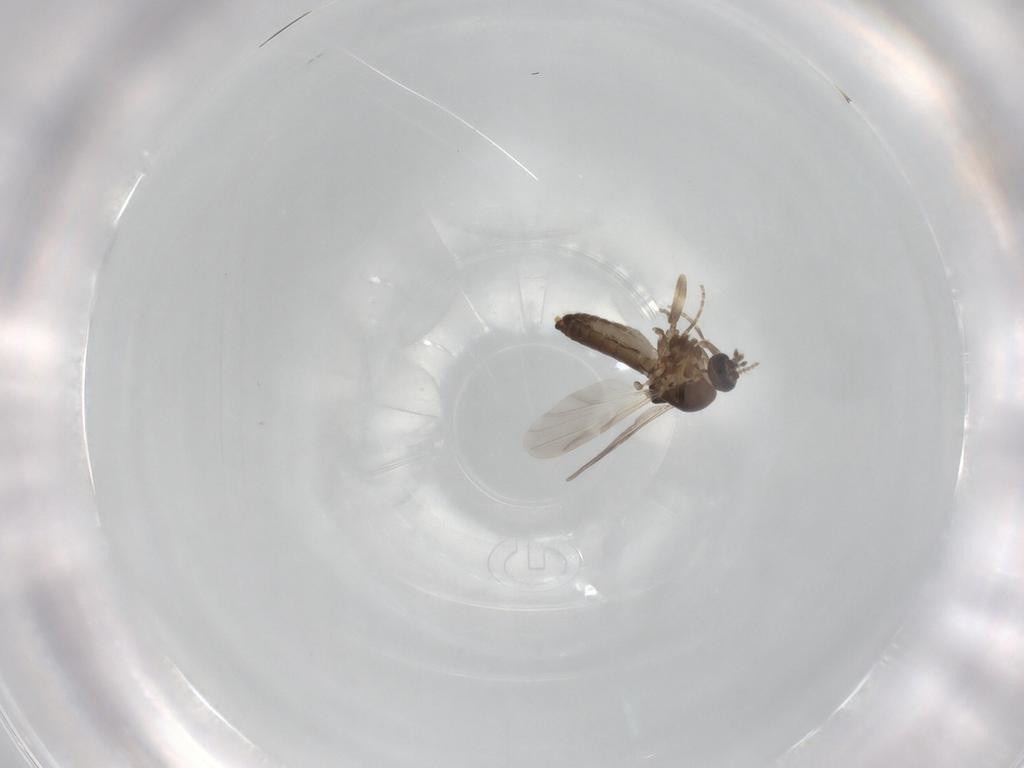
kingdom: Animalia
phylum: Arthropoda
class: Insecta
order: Diptera
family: Ceratopogonidae
